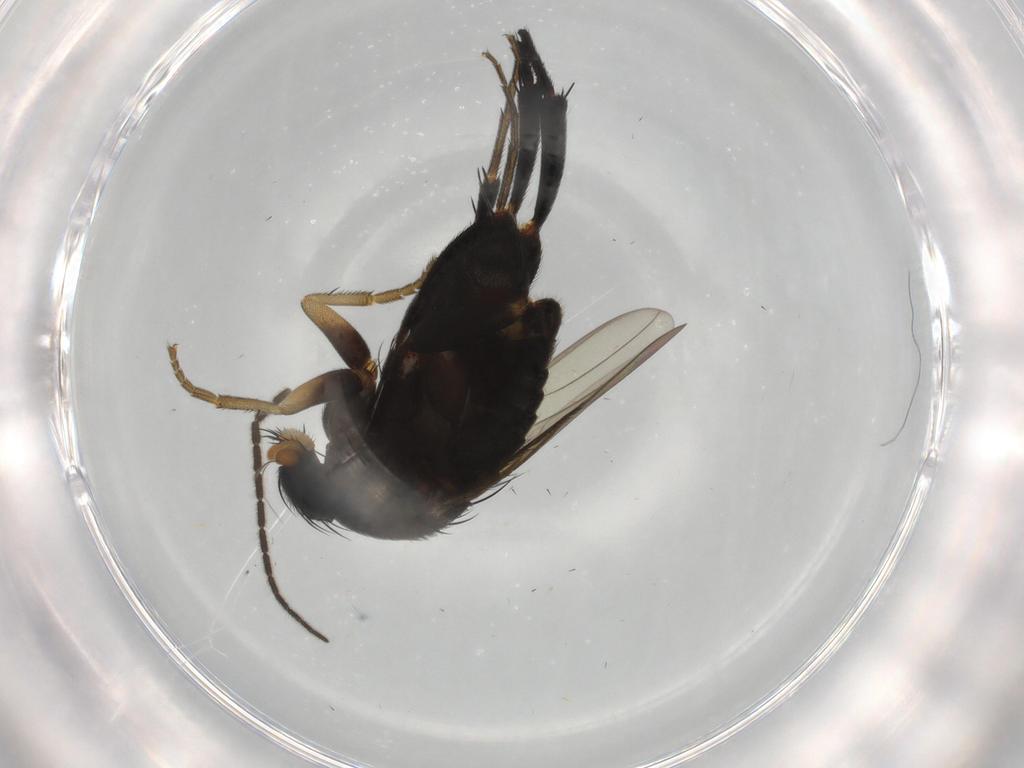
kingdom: Animalia
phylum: Arthropoda
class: Insecta
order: Diptera
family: Phoridae
